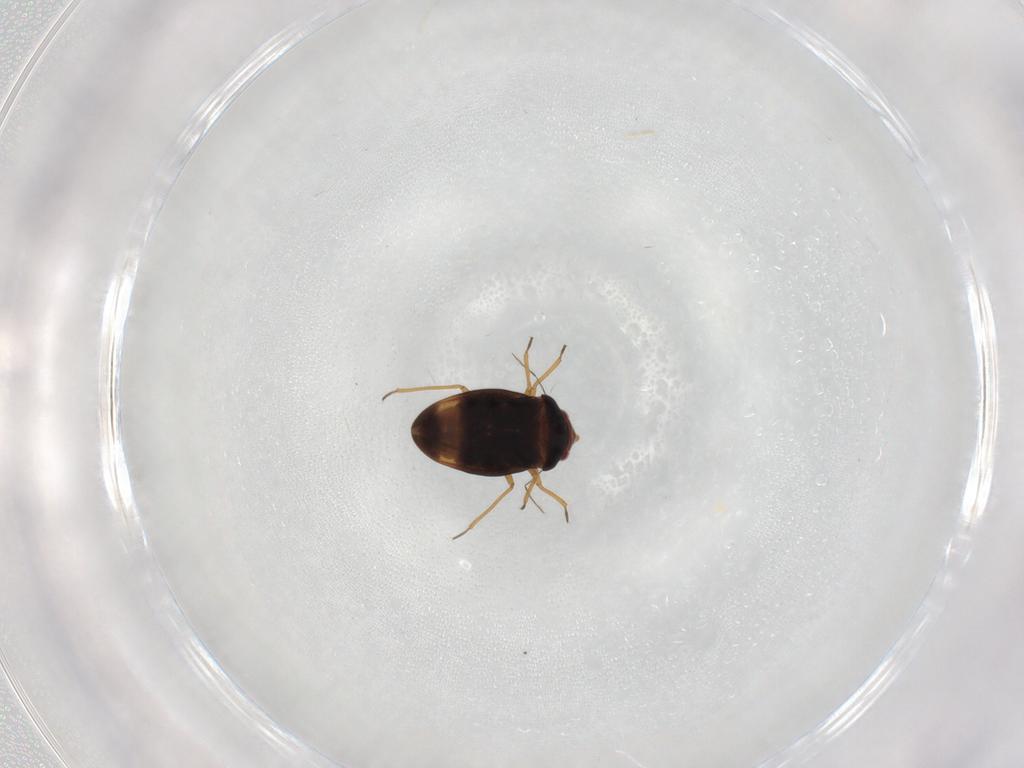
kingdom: Animalia
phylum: Arthropoda
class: Insecta
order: Hemiptera
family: Schizopteridae
